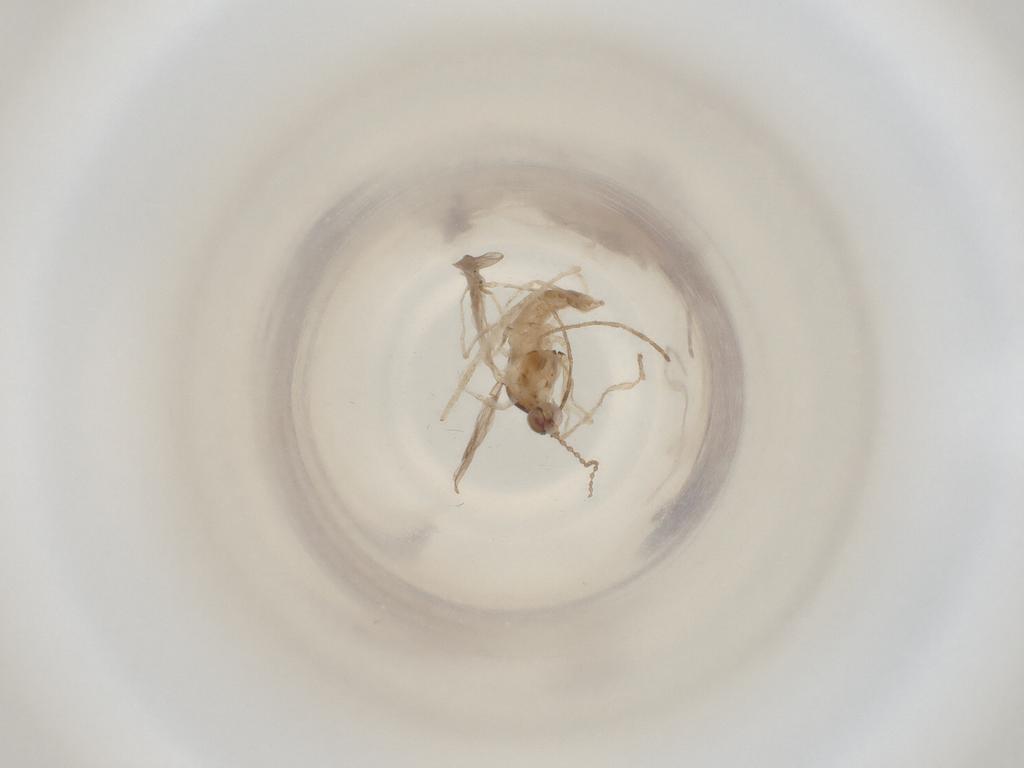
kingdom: Animalia
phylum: Arthropoda
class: Insecta
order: Diptera
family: Cecidomyiidae
